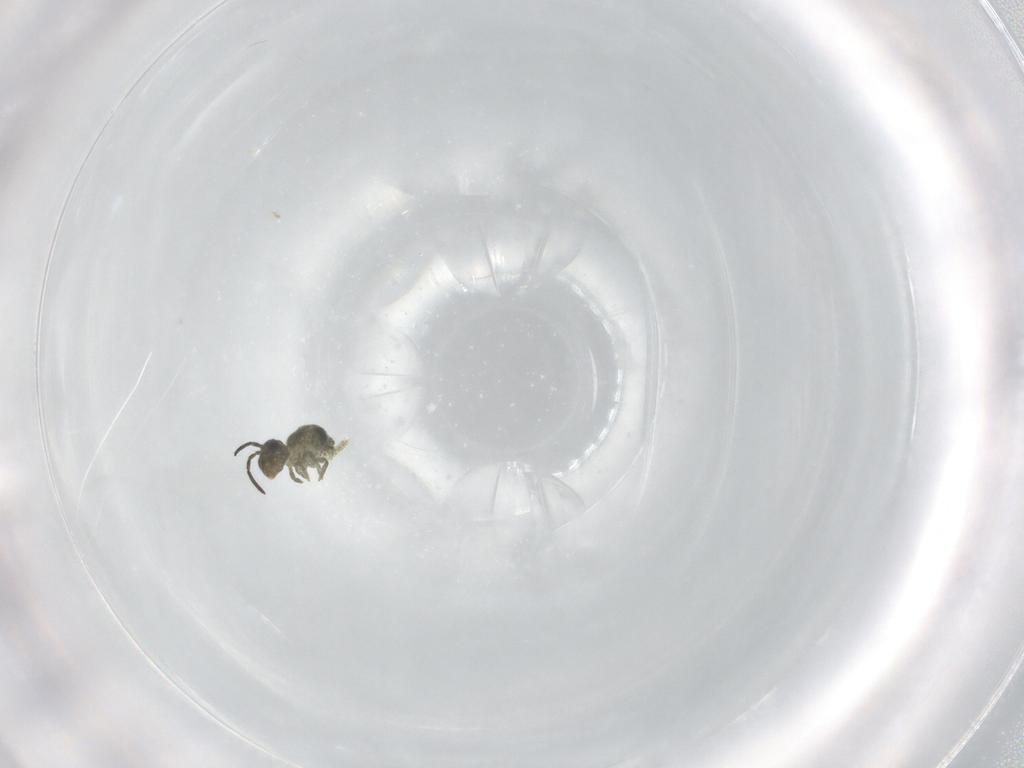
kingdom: Animalia
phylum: Arthropoda
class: Collembola
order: Symphypleona
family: Sminthuridae
